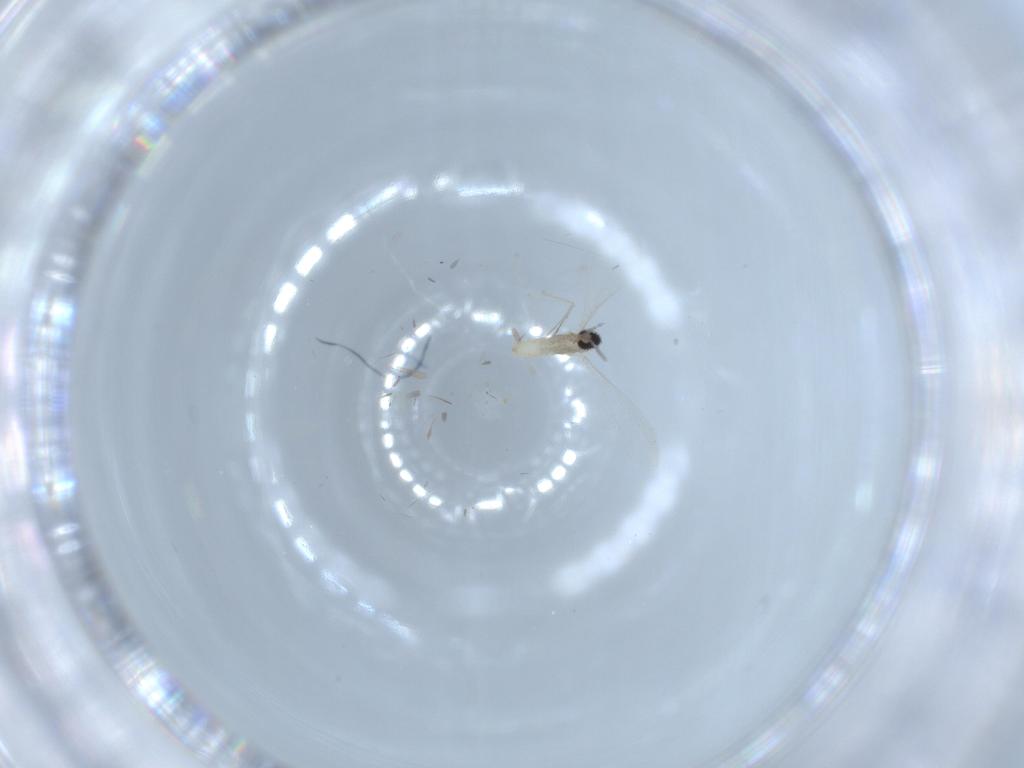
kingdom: Animalia
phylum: Arthropoda
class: Insecta
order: Diptera
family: Cecidomyiidae
